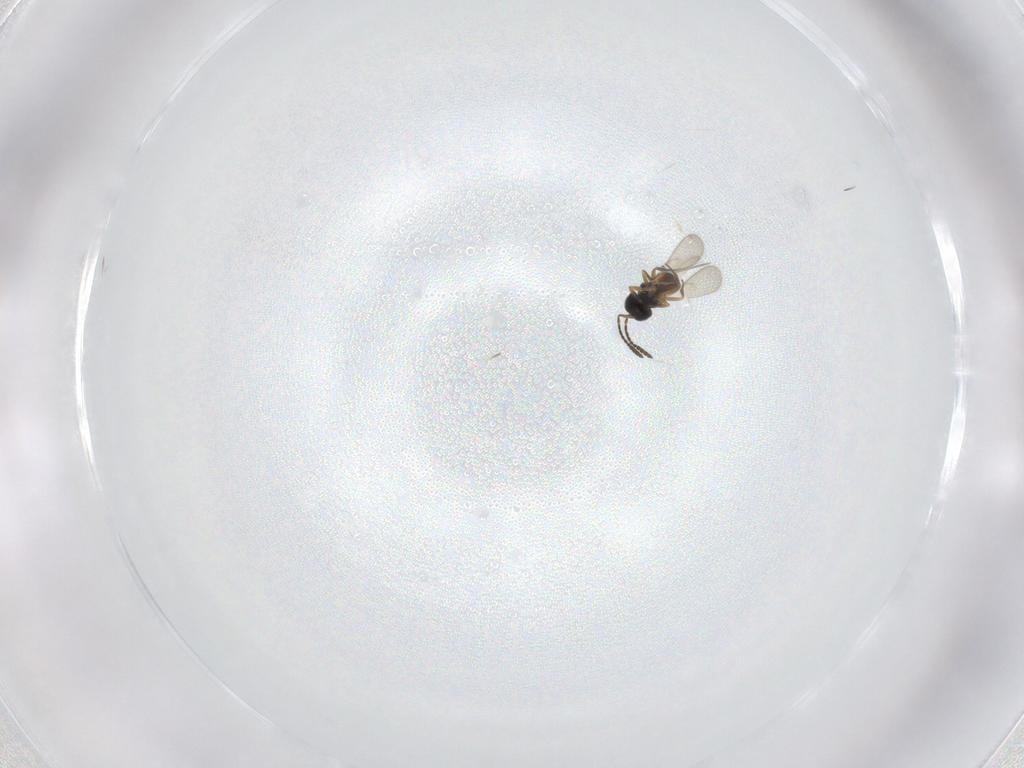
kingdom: Animalia
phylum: Arthropoda
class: Insecta
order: Hymenoptera
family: Scelionidae
